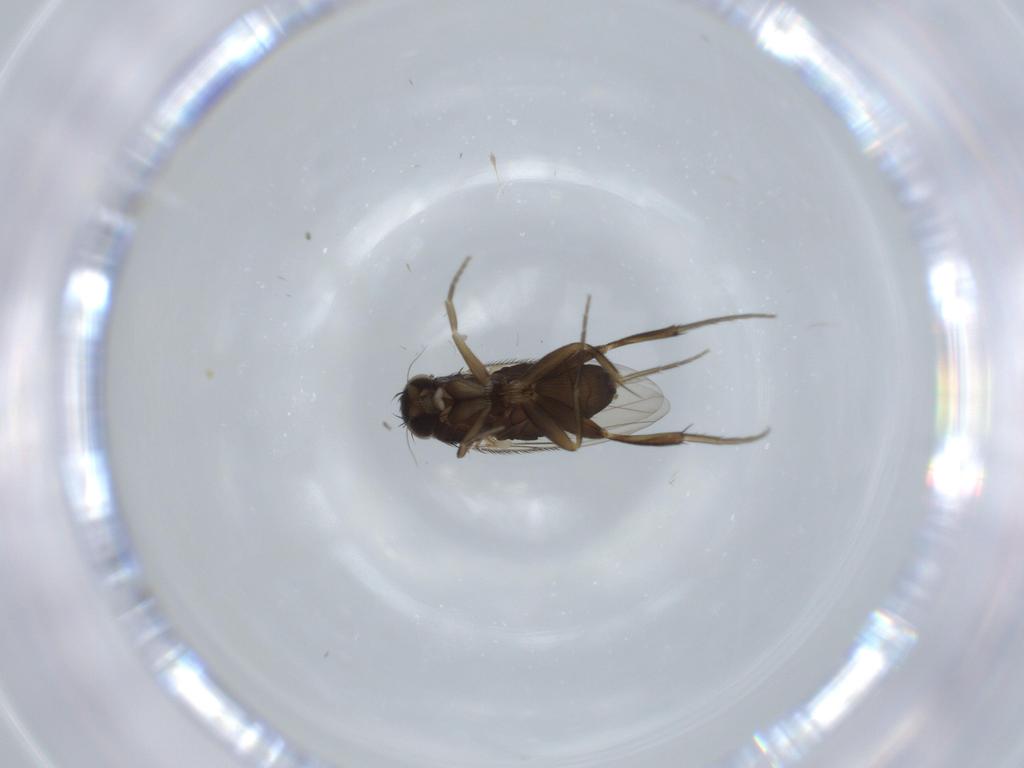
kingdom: Animalia
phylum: Arthropoda
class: Insecta
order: Diptera
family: Phoridae
